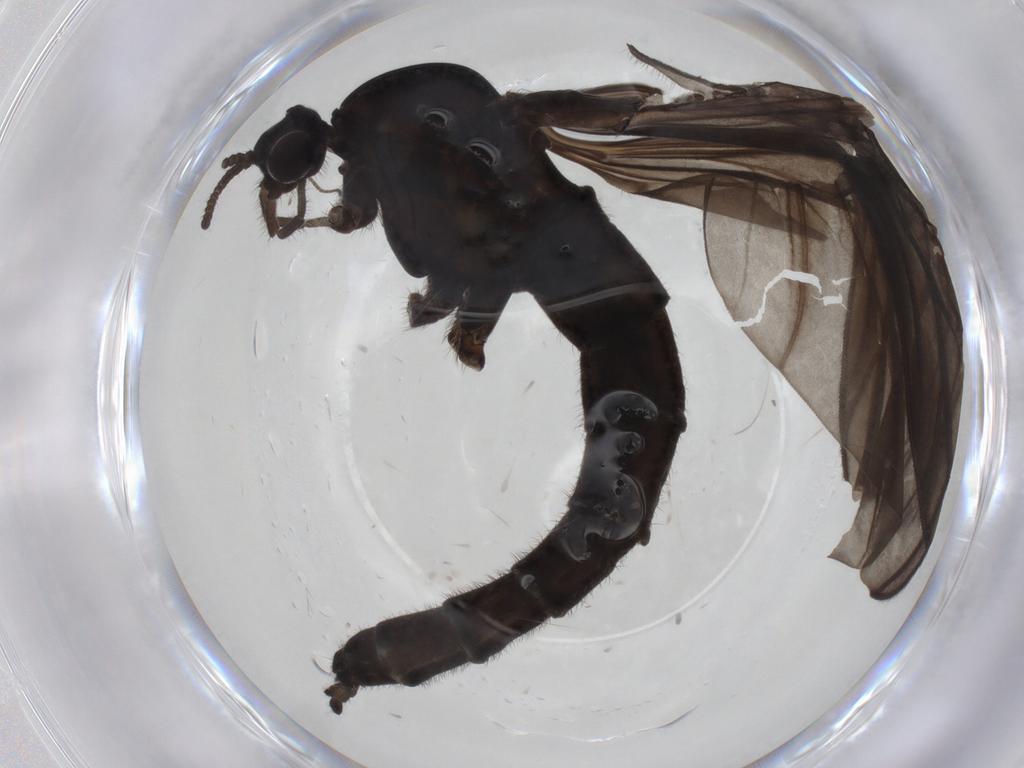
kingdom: Animalia
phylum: Arthropoda
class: Insecta
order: Diptera
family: Bibionidae
